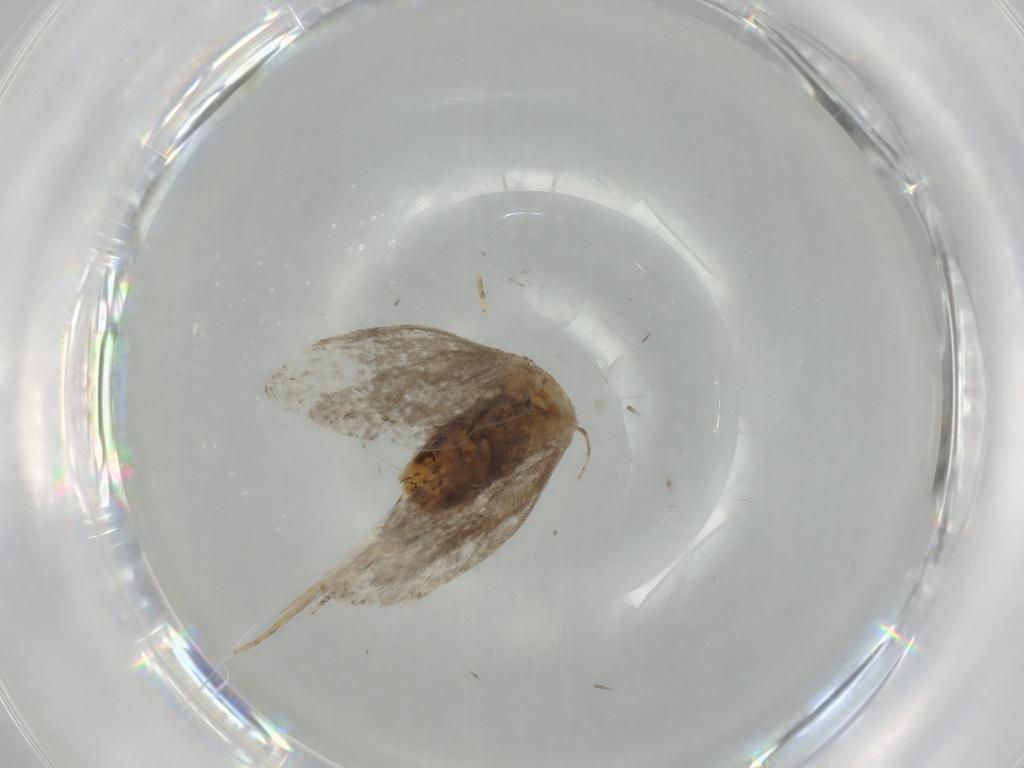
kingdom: Animalia
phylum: Arthropoda
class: Insecta
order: Lepidoptera
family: Tineidae
